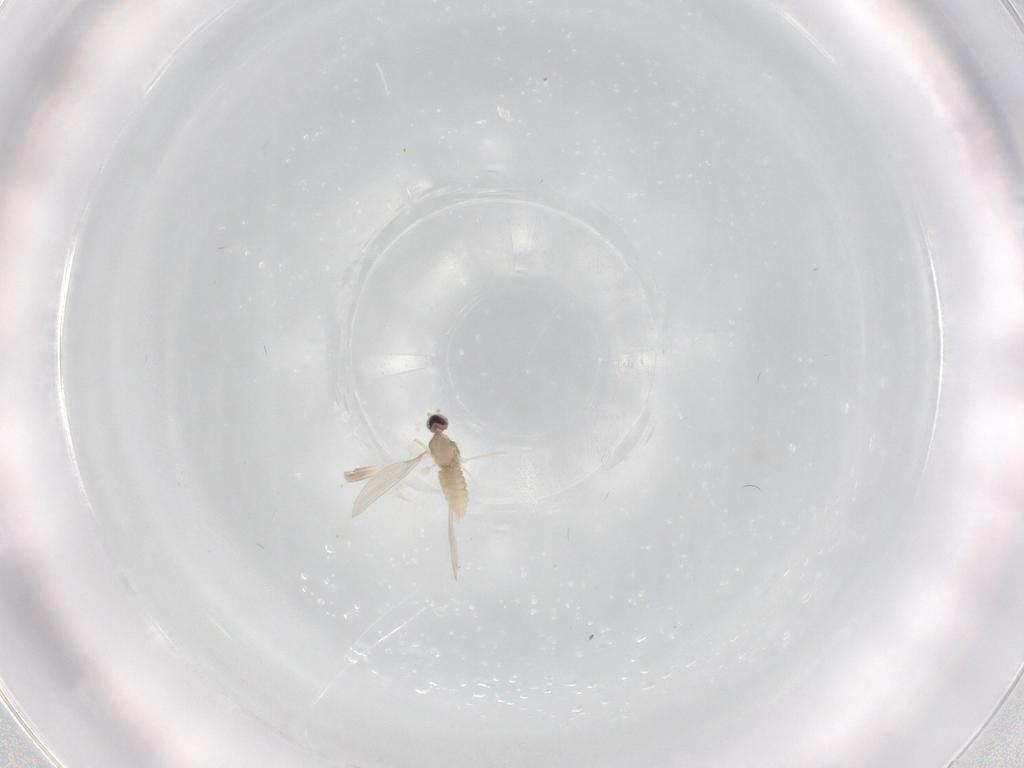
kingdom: Animalia
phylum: Arthropoda
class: Insecta
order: Diptera
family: Cecidomyiidae
